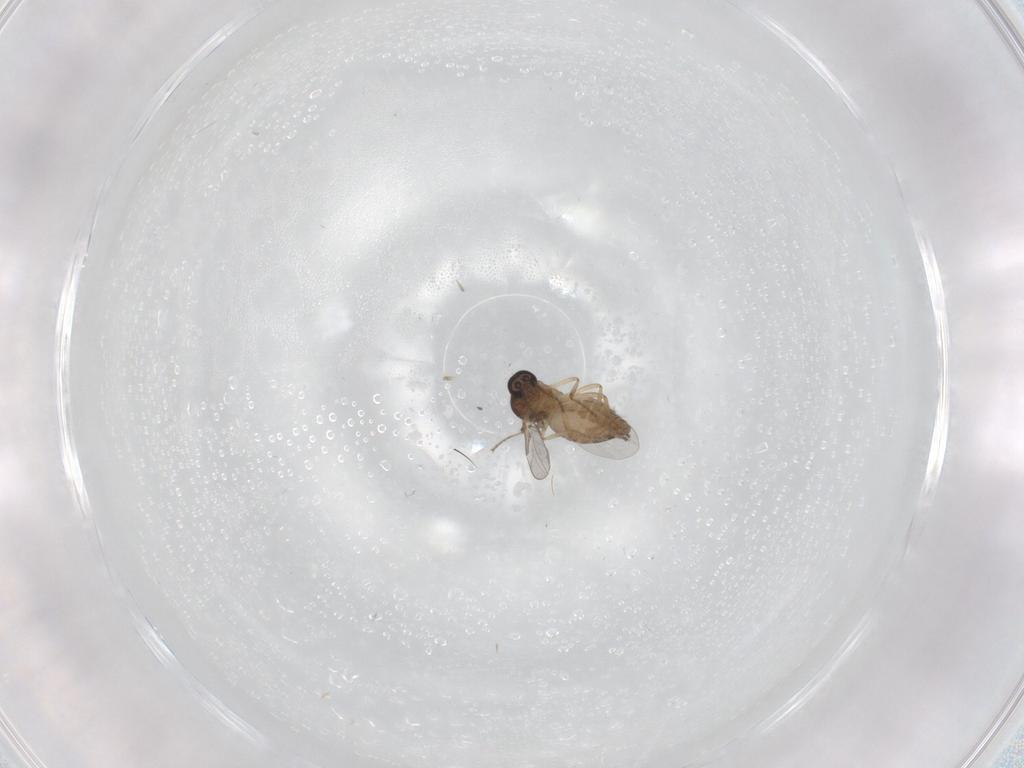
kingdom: Animalia
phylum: Arthropoda
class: Insecta
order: Diptera
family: Ceratopogonidae
